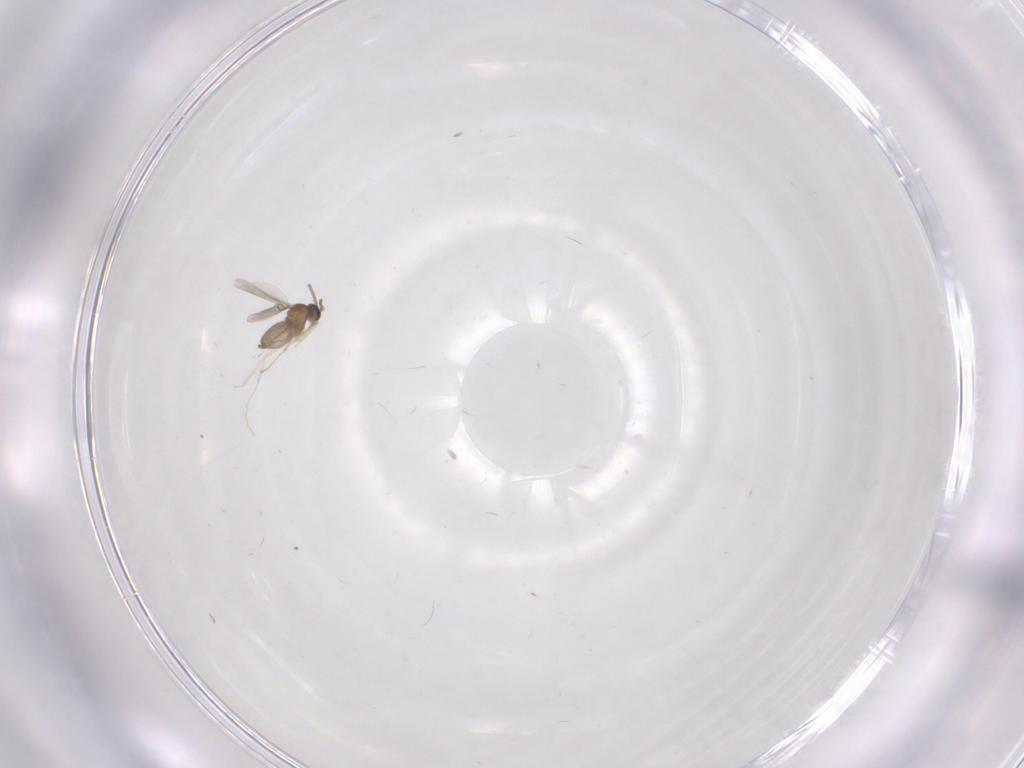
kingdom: Animalia
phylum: Arthropoda
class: Insecta
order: Diptera
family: Cecidomyiidae
